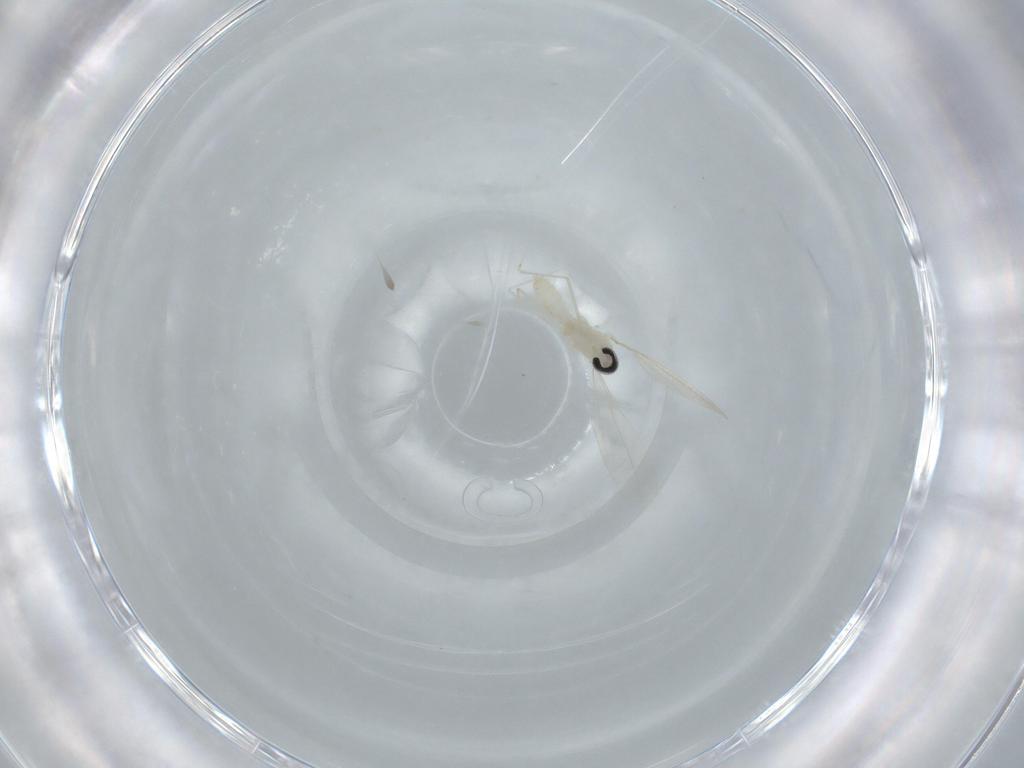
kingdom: Animalia
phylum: Arthropoda
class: Insecta
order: Diptera
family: Cecidomyiidae
